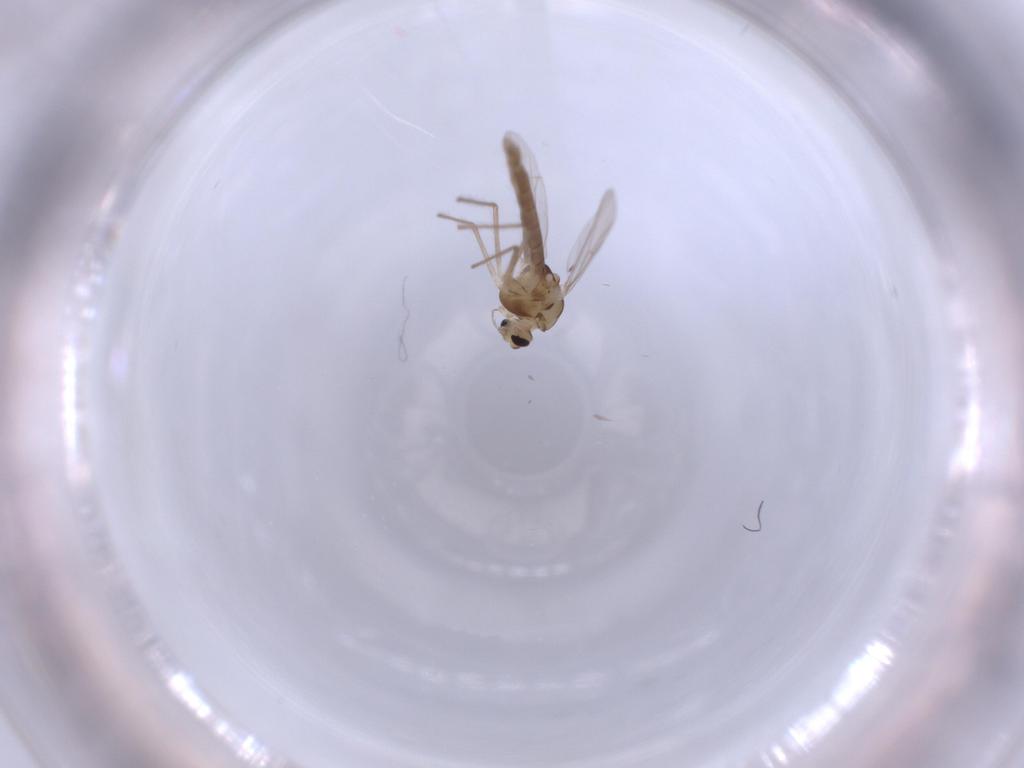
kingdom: Animalia
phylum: Arthropoda
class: Insecta
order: Diptera
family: Chironomidae
